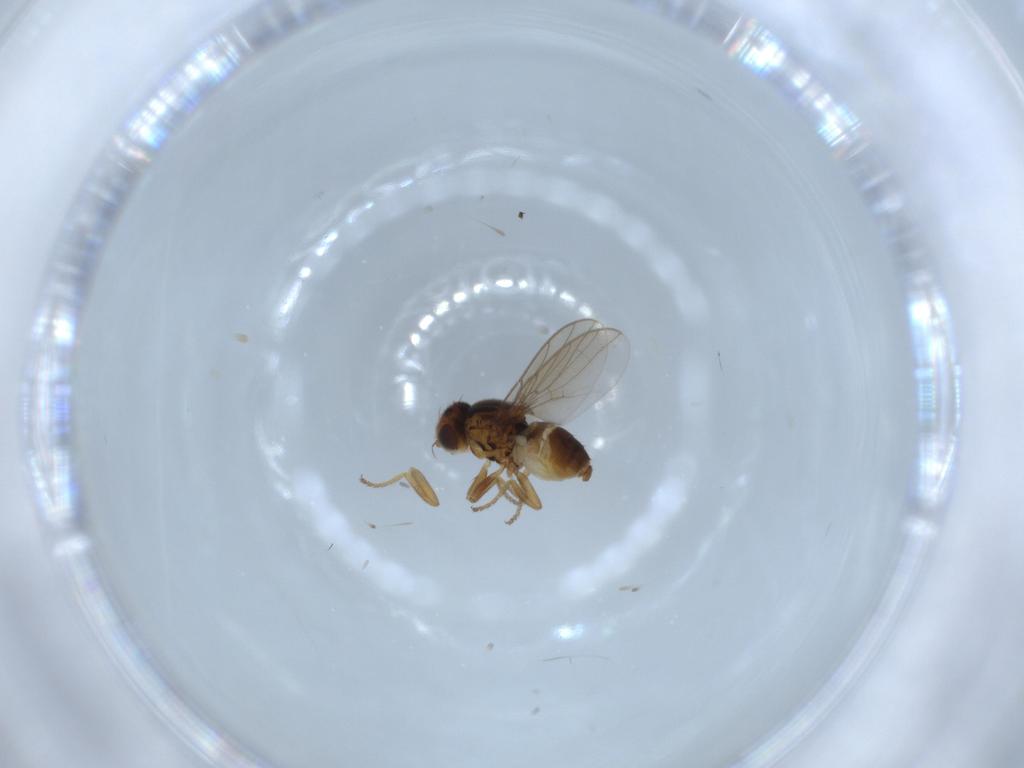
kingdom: Animalia
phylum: Arthropoda
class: Insecta
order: Diptera
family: Chloropidae
